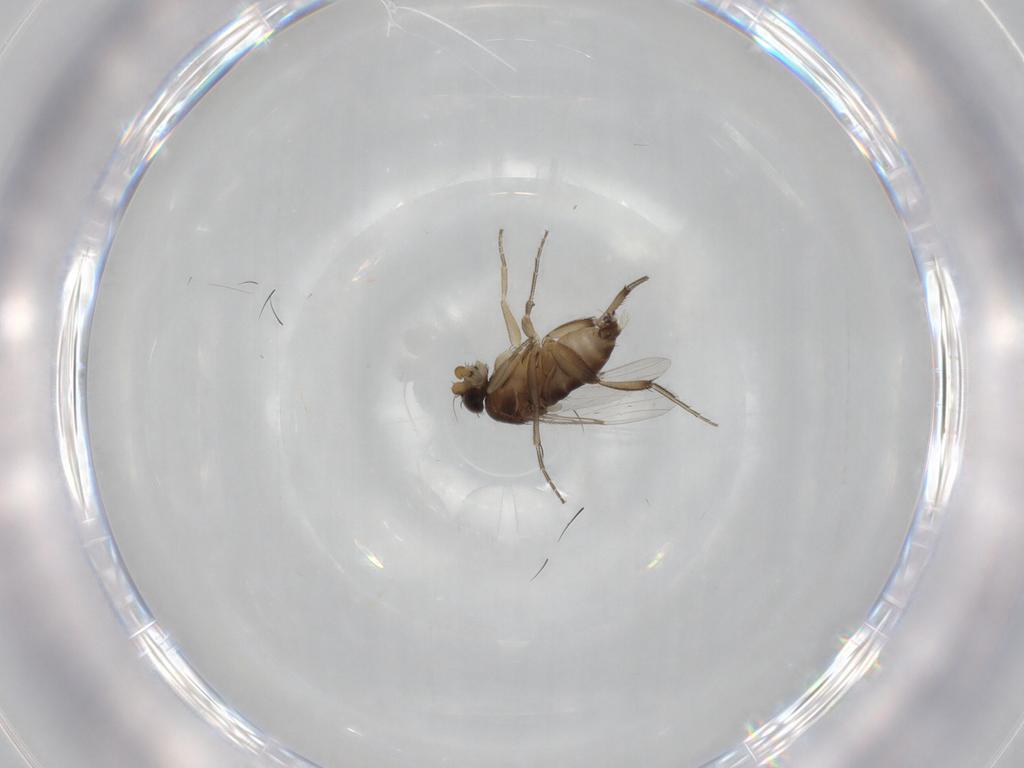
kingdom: Animalia
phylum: Arthropoda
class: Insecta
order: Diptera
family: Phoridae
